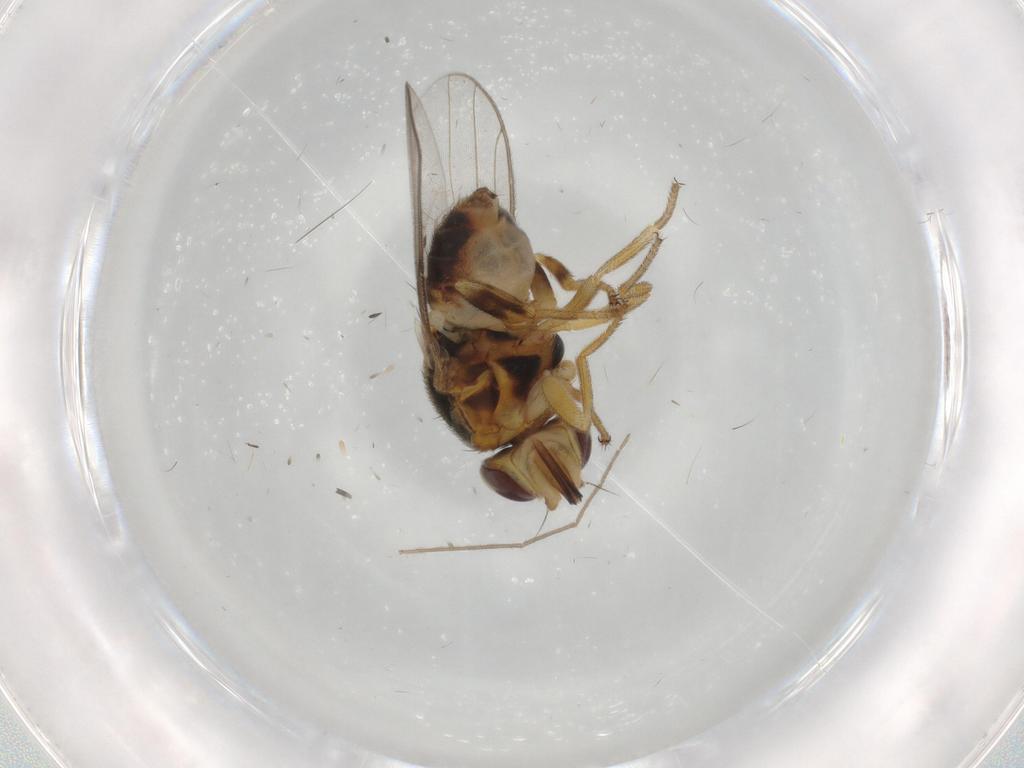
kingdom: Animalia
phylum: Arthropoda
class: Insecta
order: Diptera
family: Chloropidae
